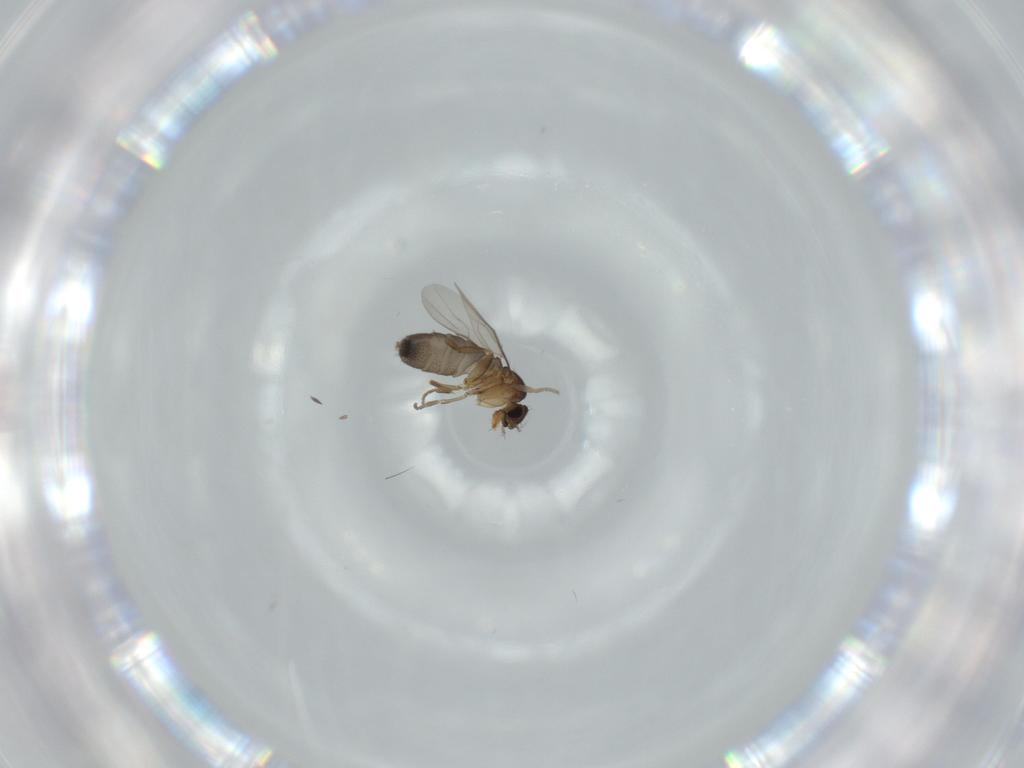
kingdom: Animalia
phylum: Arthropoda
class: Insecta
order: Diptera
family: Phoridae
